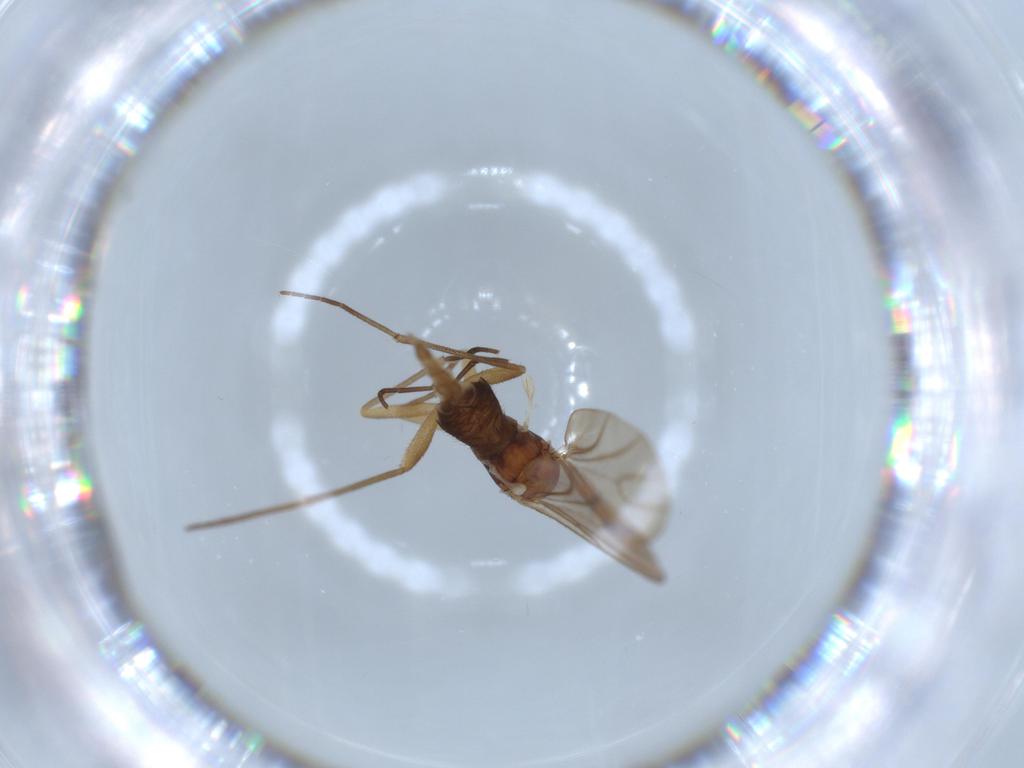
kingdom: Animalia
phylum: Arthropoda
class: Insecta
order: Diptera
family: Sciaridae
